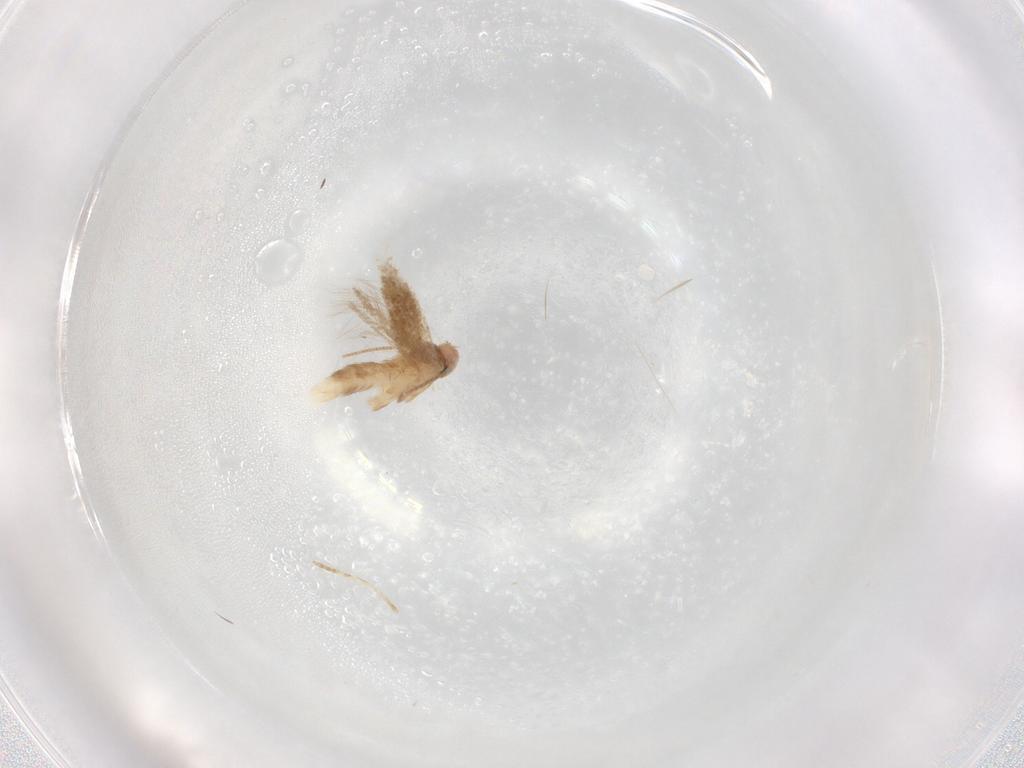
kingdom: Animalia
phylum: Arthropoda
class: Insecta
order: Lepidoptera
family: Gracillariidae
